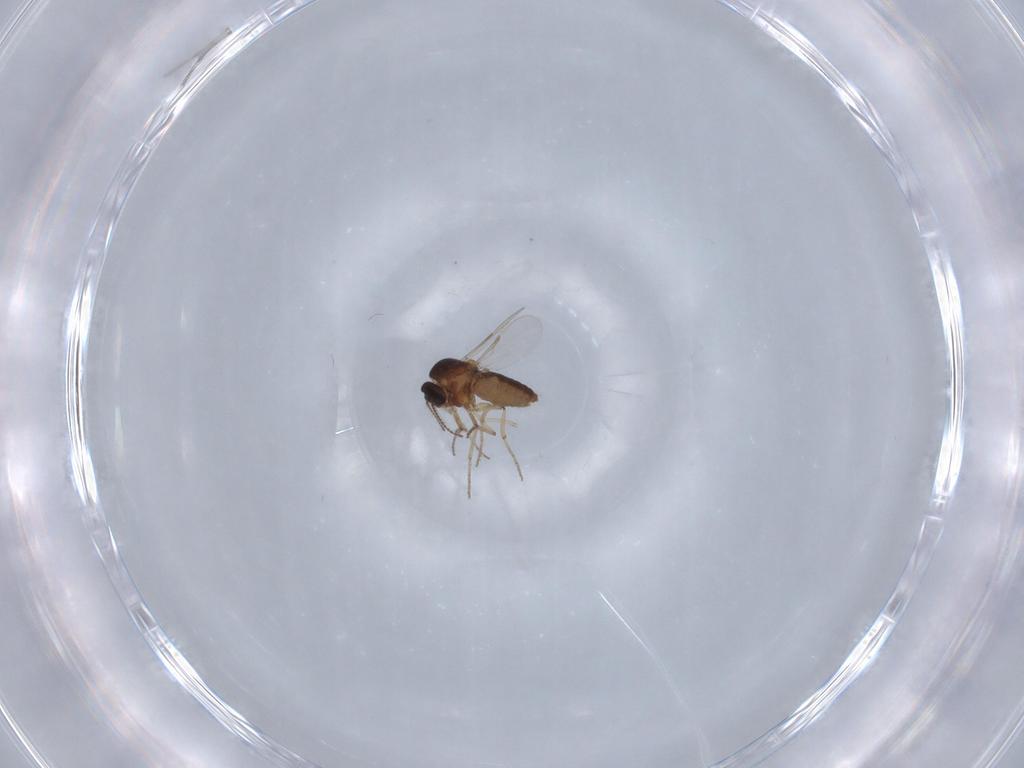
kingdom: Animalia
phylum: Arthropoda
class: Insecta
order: Diptera
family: Ceratopogonidae
